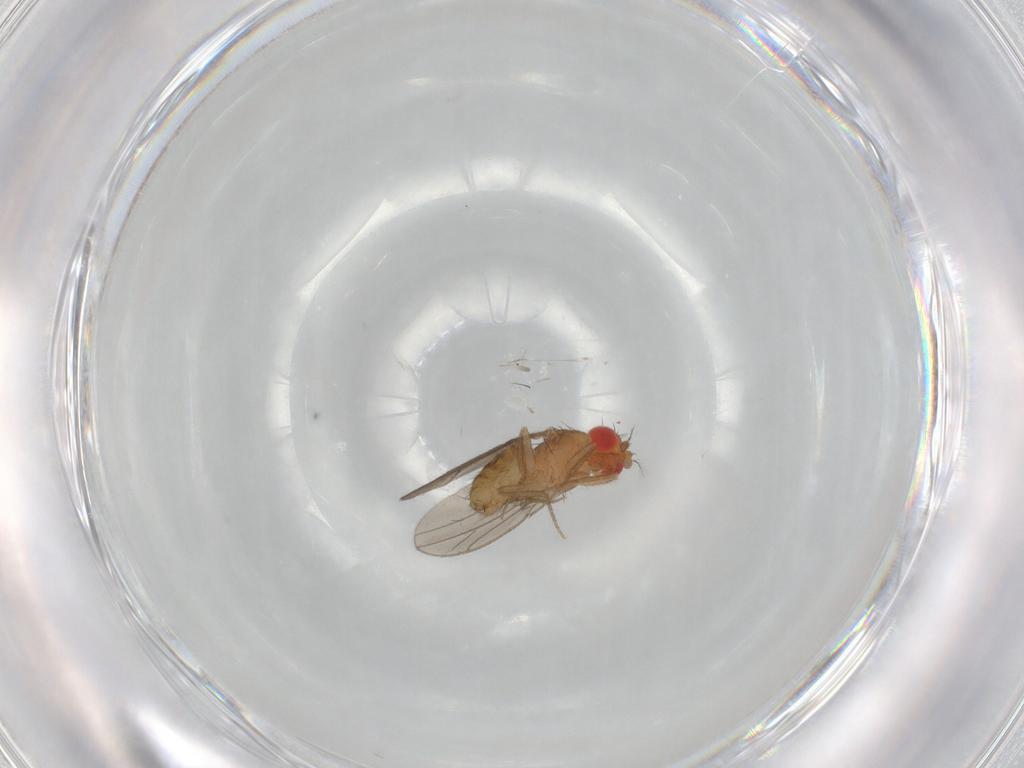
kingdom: Animalia
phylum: Arthropoda
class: Insecta
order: Diptera
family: Drosophilidae
